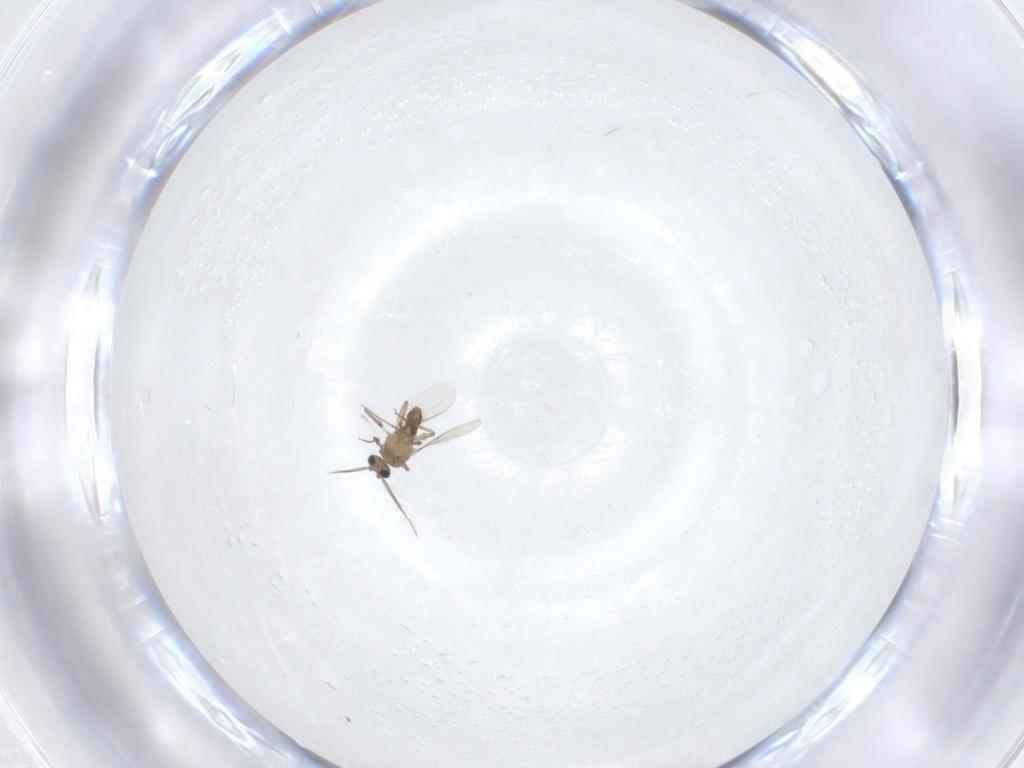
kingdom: Animalia
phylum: Arthropoda
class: Insecta
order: Diptera
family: Ceratopogonidae
